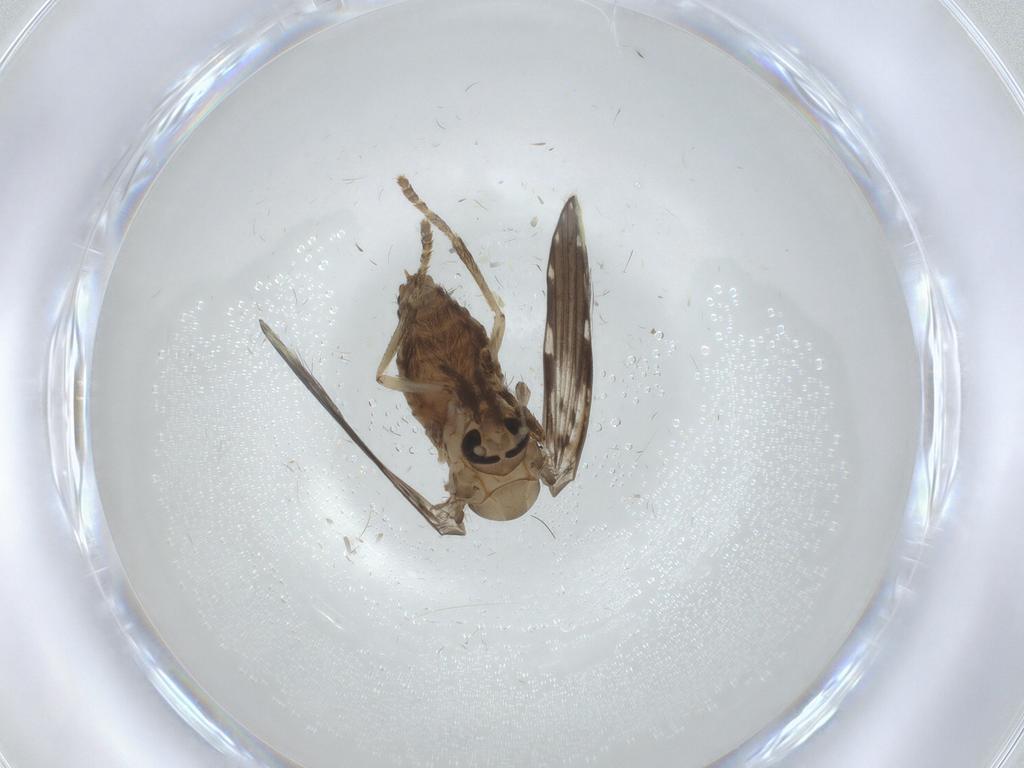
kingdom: Animalia
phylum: Arthropoda
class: Insecta
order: Diptera
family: Psychodidae
